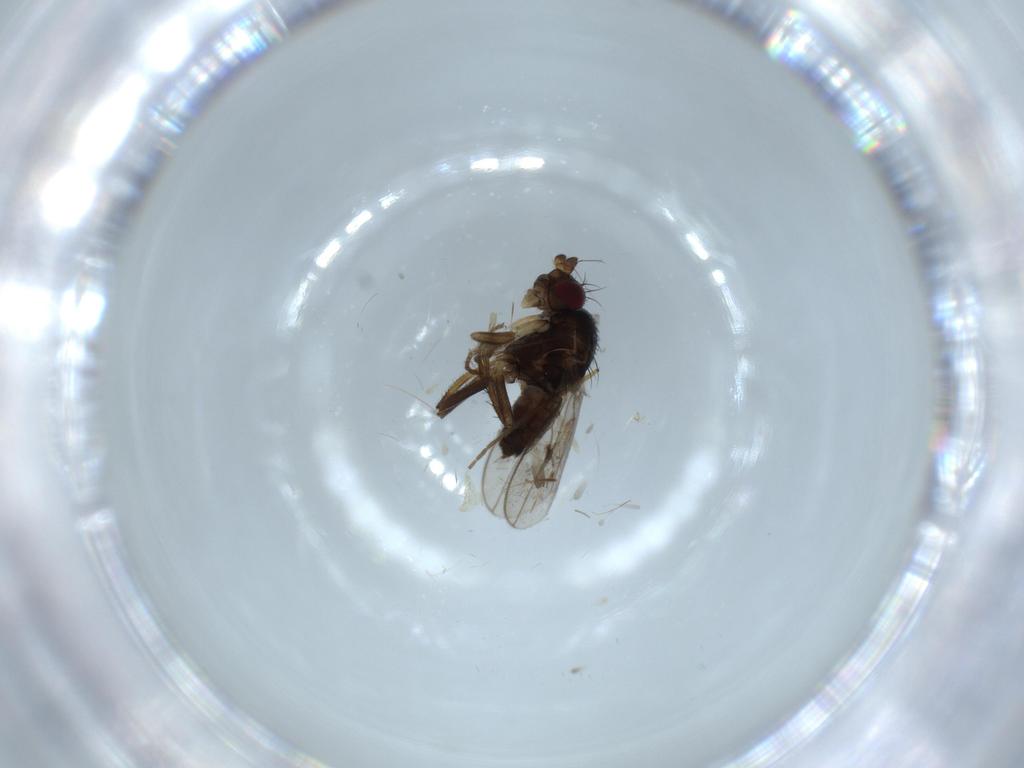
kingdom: Animalia
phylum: Arthropoda
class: Insecta
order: Diptera
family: Sphaeroceridae
